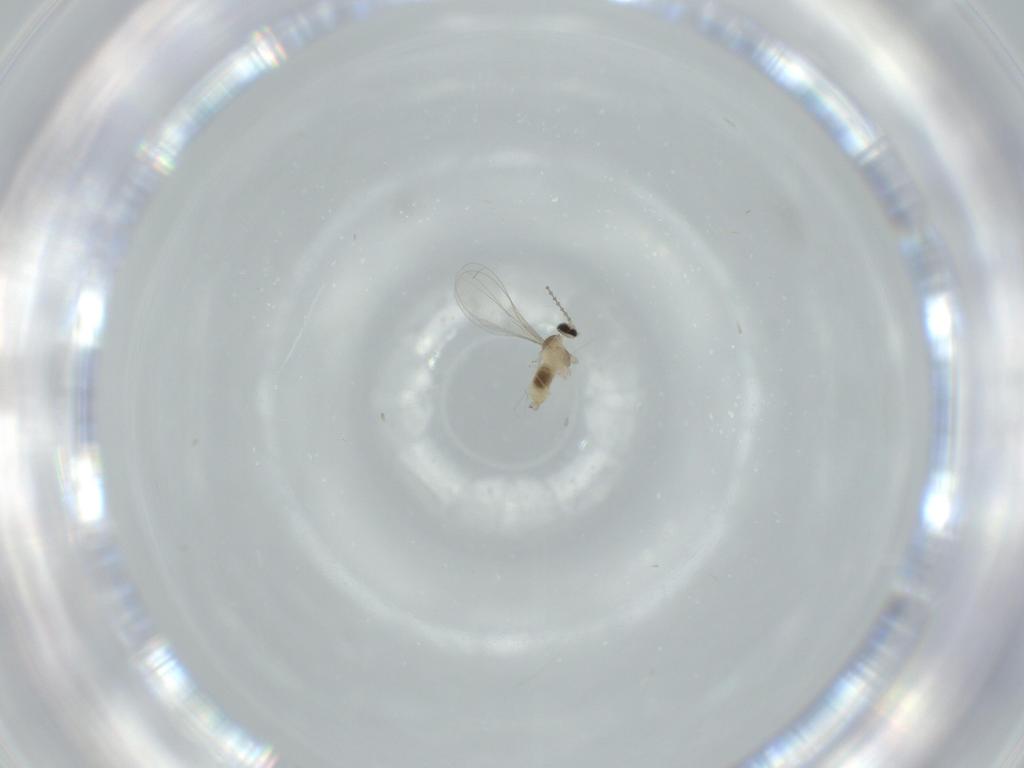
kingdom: Animalia
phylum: Arthropoda
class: Insecta
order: Diptera
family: Cecidomyiidae
